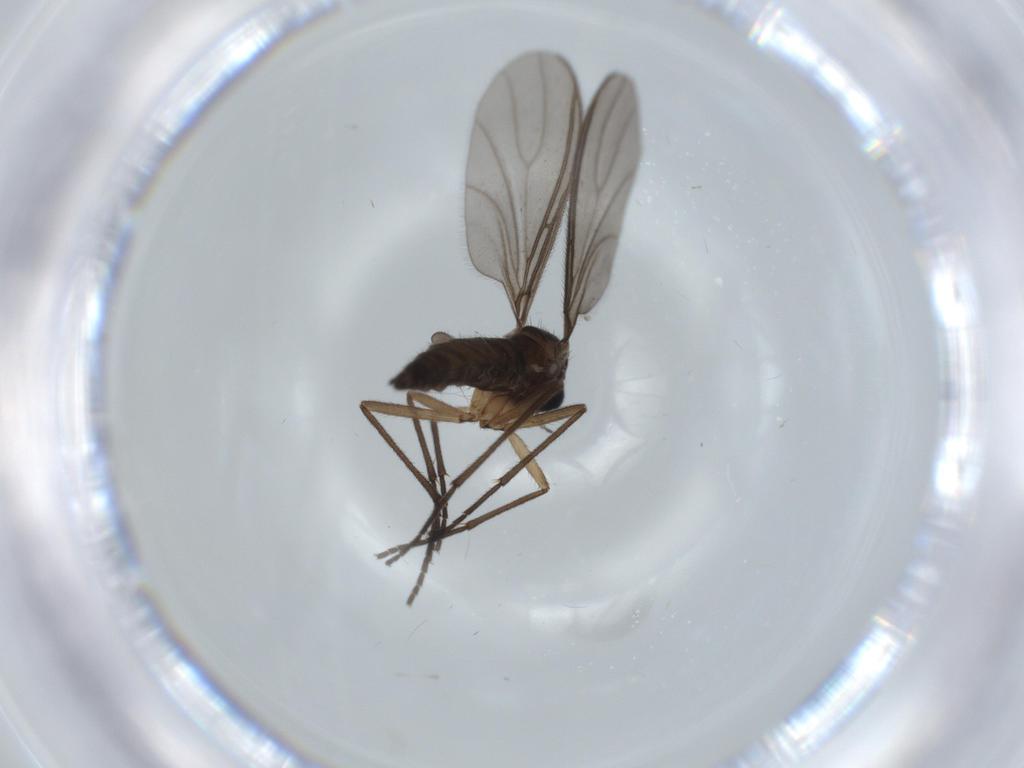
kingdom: Animalia
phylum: Arthropoda
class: Insecta
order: Diptera
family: Sciaridae
